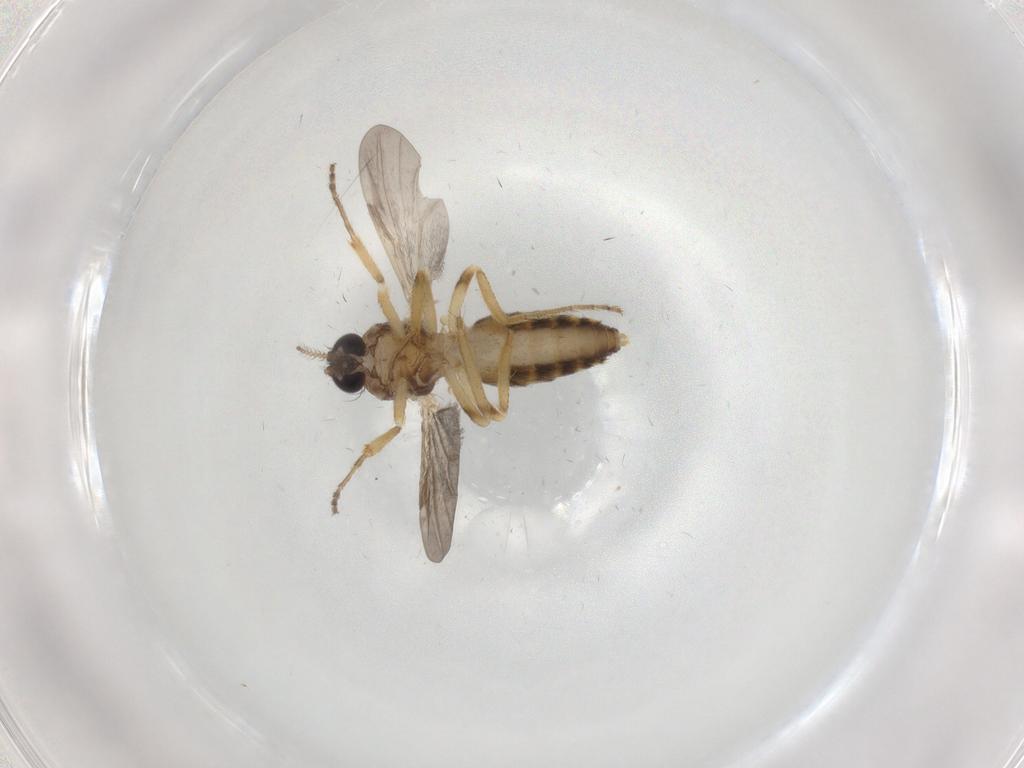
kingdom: Animalia
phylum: Arthropoda
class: Insecta
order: Diptera
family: Ceratopogonidae
